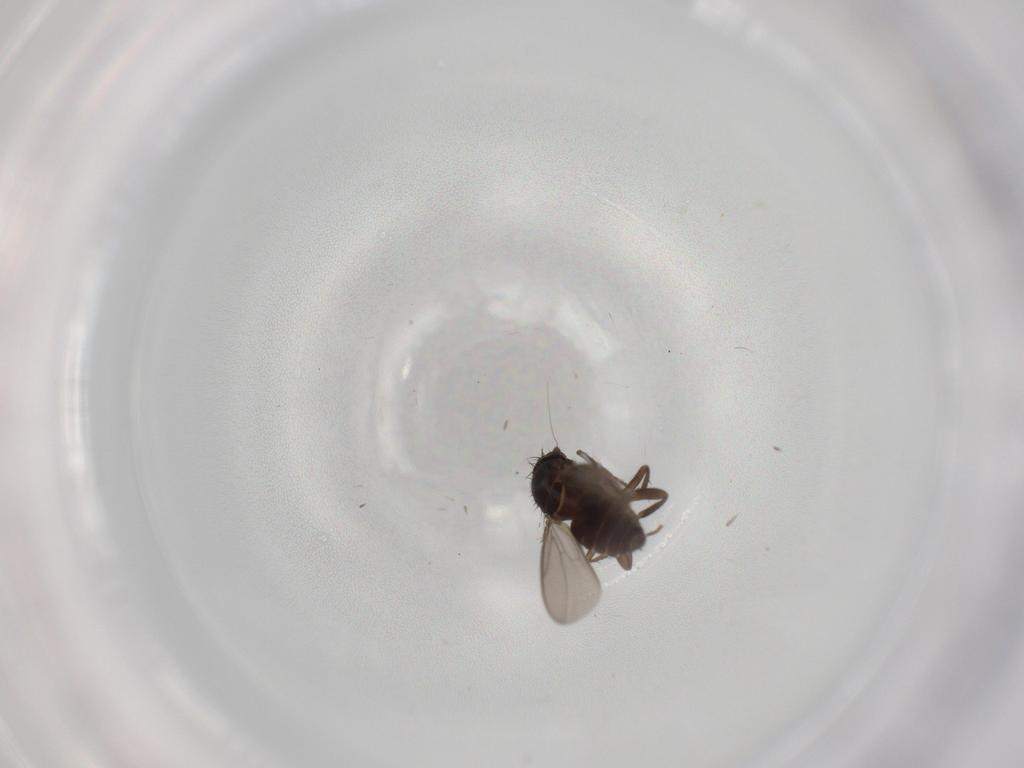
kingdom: Animalia
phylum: Arthropoda
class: Insecta
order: Diptera
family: Sphaeroceridae
